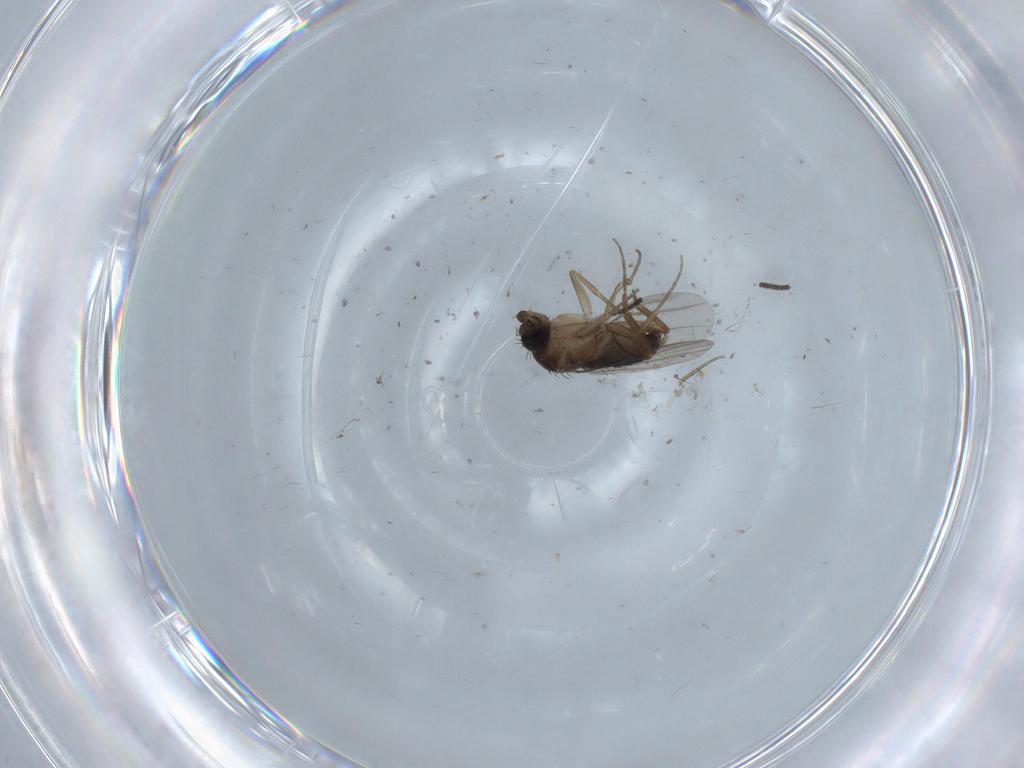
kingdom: Animalia
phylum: Arthropoda
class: Insecta
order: Diptera
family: Phoridae
